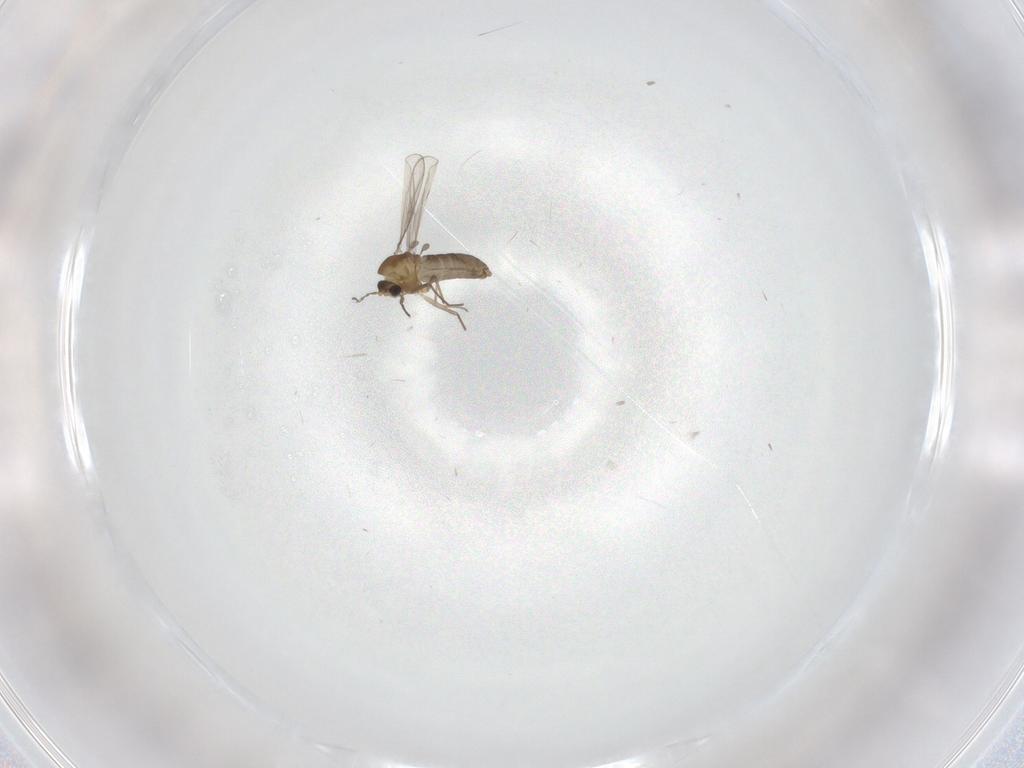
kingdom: Animalia
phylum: Arthropoda
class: Insecta
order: Diptera
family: Chironomidae
